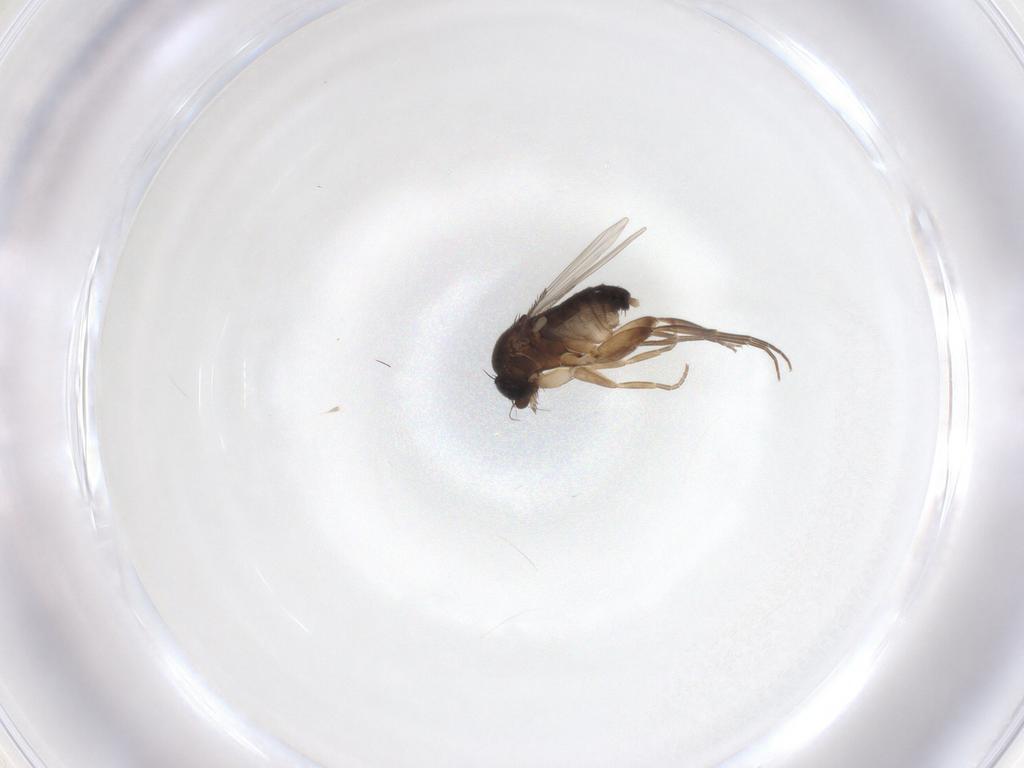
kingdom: Animalia
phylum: Arthropoda
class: Insecta
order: Diptera
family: Phoridae
